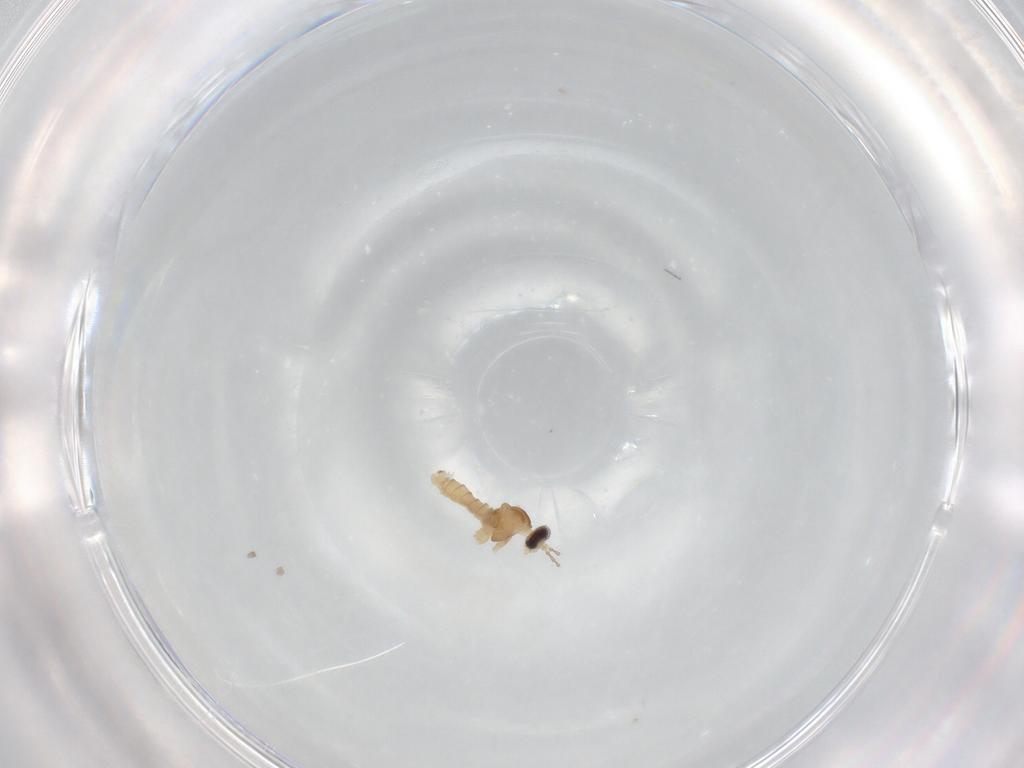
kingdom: Animalia
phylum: Arthropoda
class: Insecta
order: Diptera
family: Cecidomyiidae
